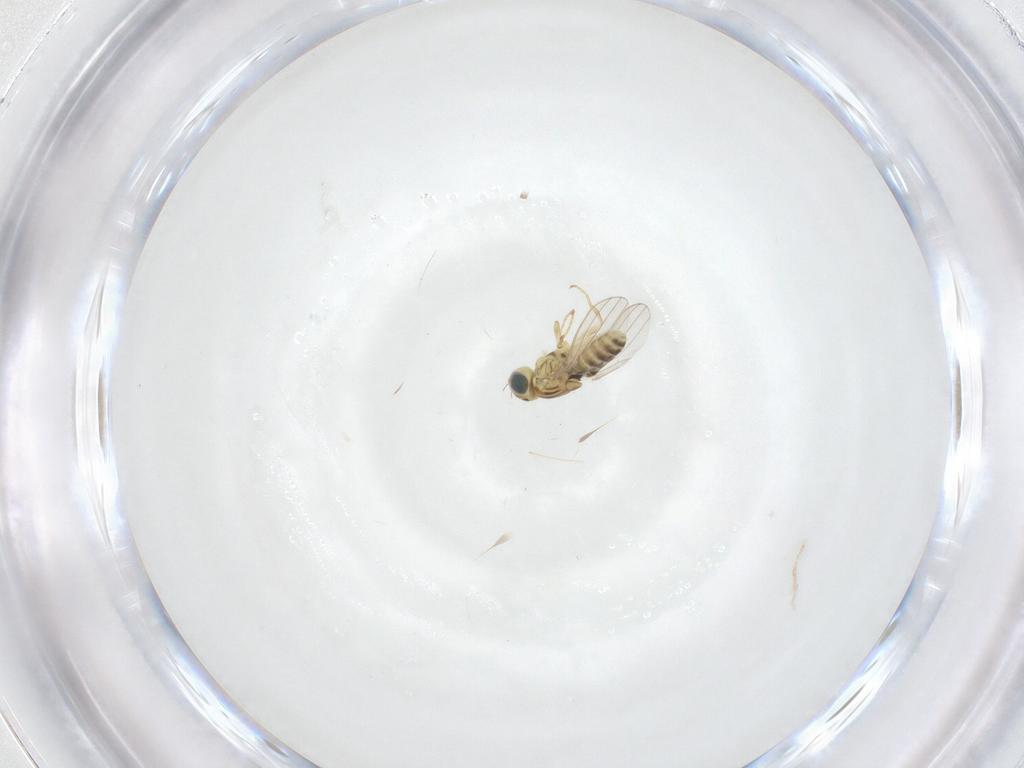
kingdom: Animalia
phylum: Arthropoda
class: Insecta
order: Diptera
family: Chyromyidae
